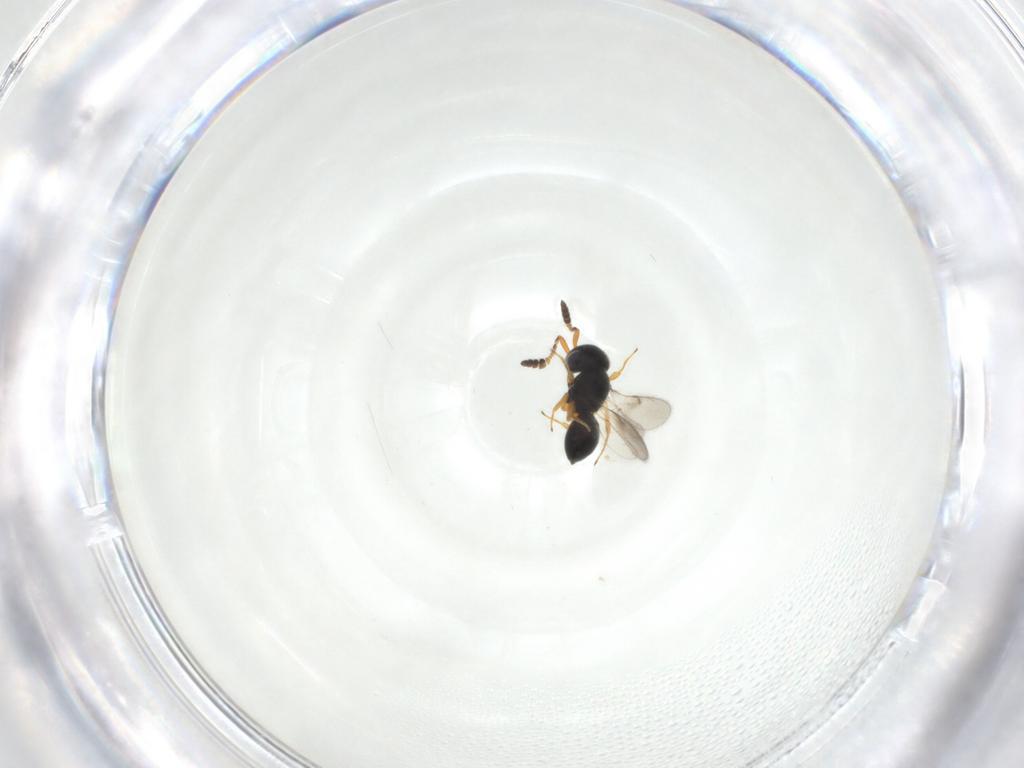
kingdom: Animalia
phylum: Arthropoda
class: Insecta
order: Hymenoptera
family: Scelionidae
